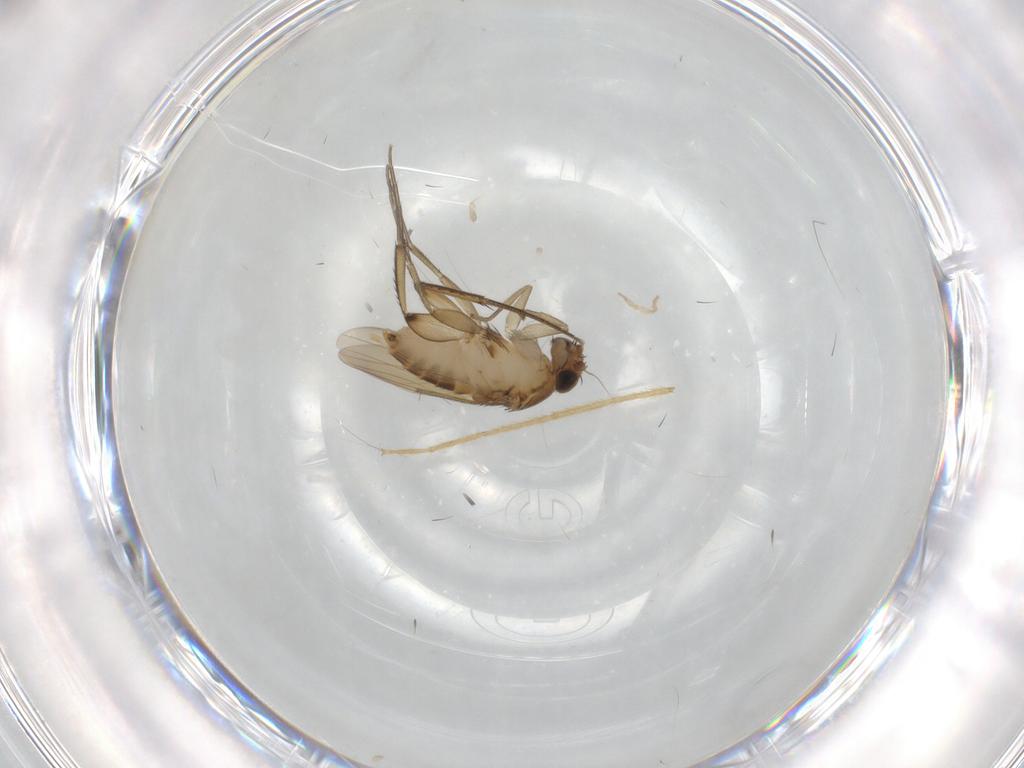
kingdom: Animalia
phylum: Arthropoda
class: Insecta
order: Diptera
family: Phoridae
